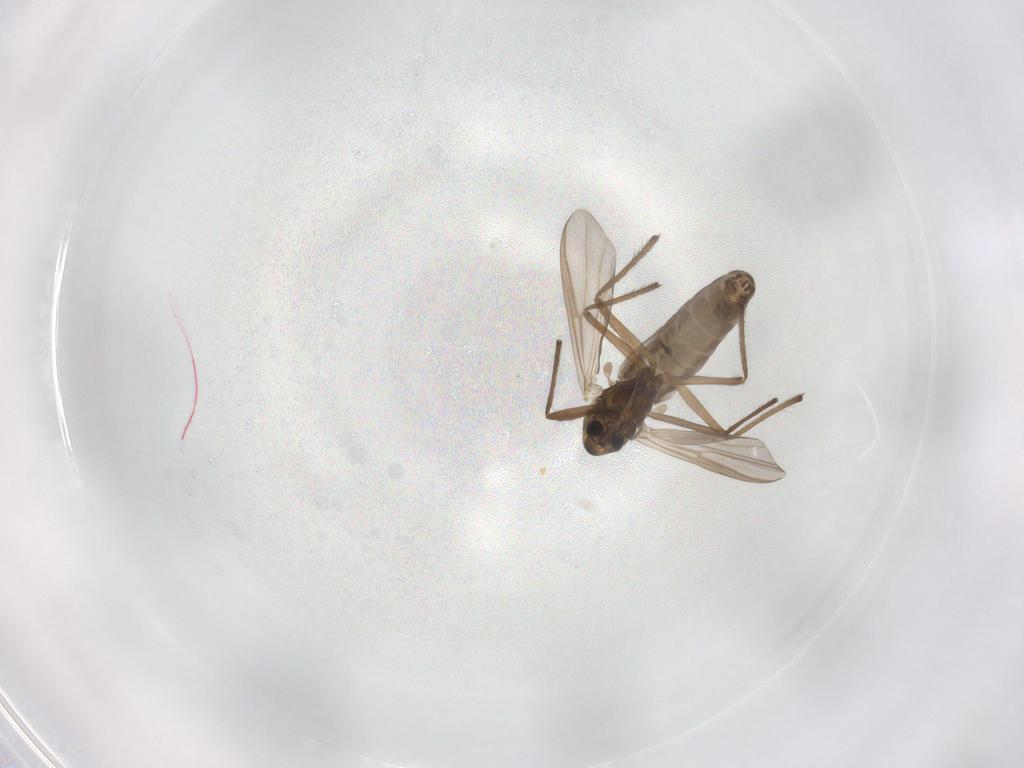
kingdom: Animalia
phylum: Arthropoda
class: Insecta
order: Diptera
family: Chironomidae
